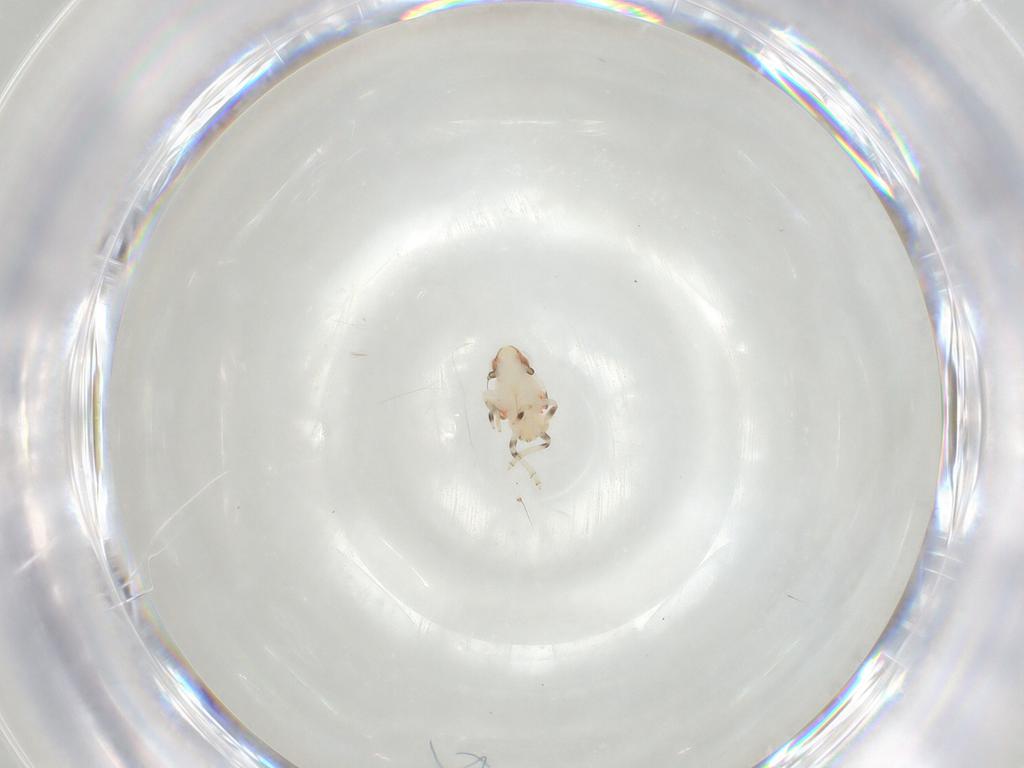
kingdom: Animalia
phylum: Arthropoda
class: Insecta
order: Hemiptera
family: Nogodinidae
